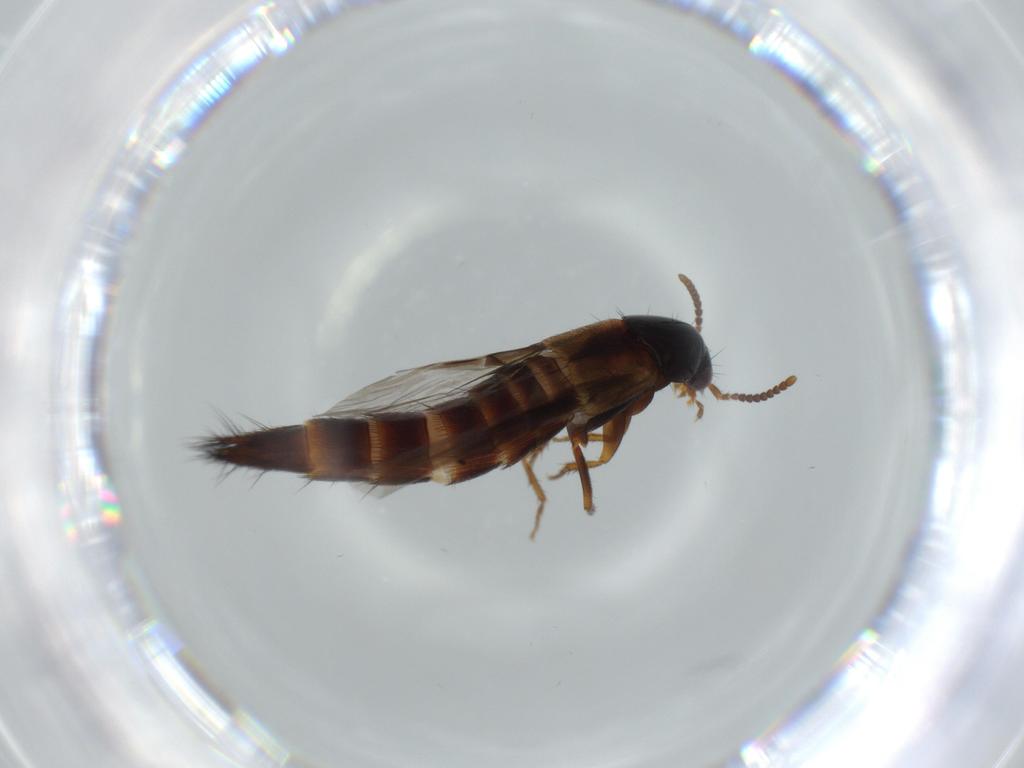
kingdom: Animalia
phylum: Arthropoda
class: Insecta
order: Coleoptera
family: Staphylinidae
